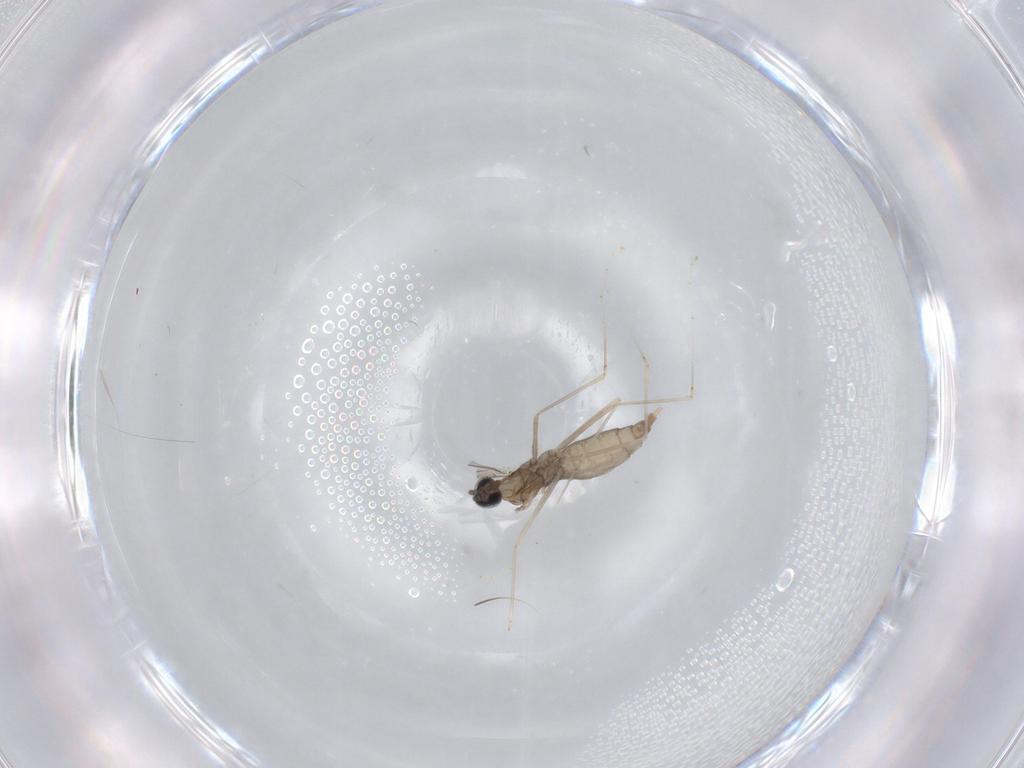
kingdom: Animalia
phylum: Arthropoda
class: Insecta
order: Diptera
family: Cecidomyiidae
